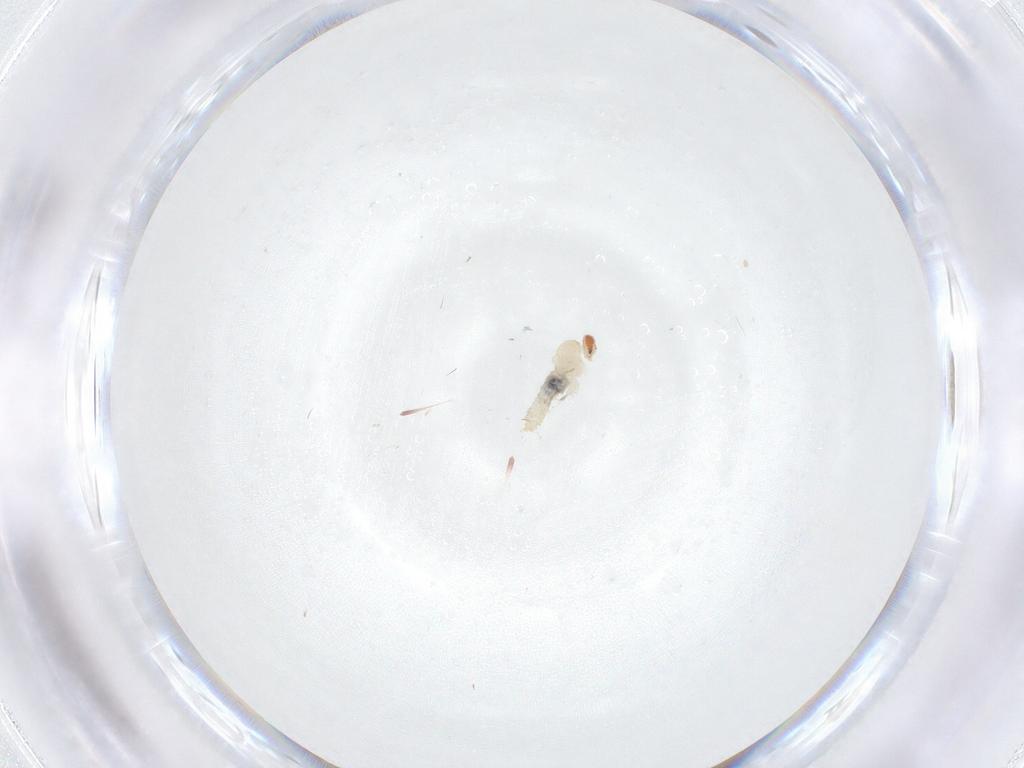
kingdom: Animalia
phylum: Arthropoda
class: Insecta
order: Diptera
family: Cecidomyiidae
